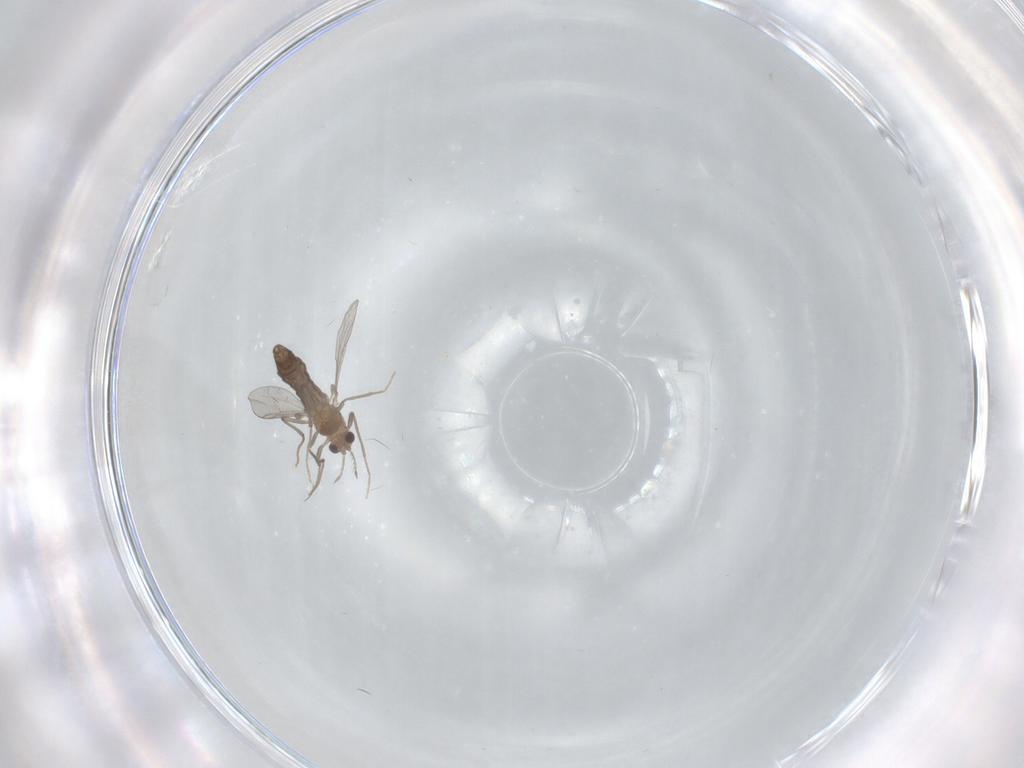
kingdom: Animalia
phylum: Arthropoda
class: Insecta
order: Diptera
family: Chironomidae
